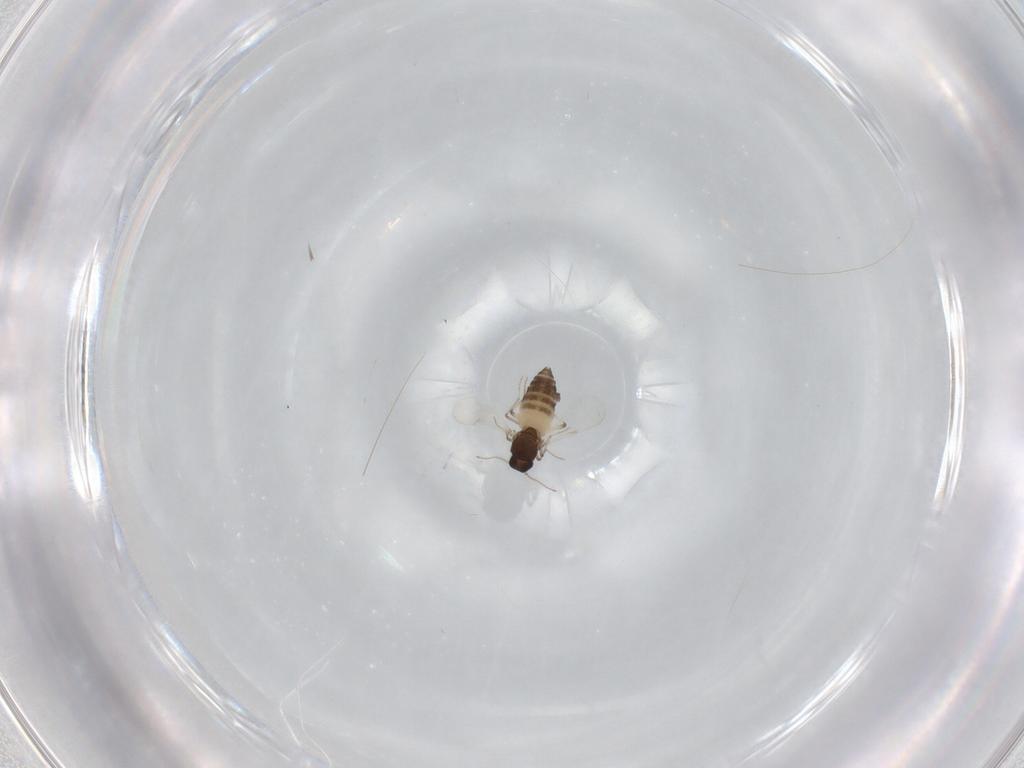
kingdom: Animalia
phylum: Arthropoda
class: Insecta
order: Diptera
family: Ceratopogonidae
